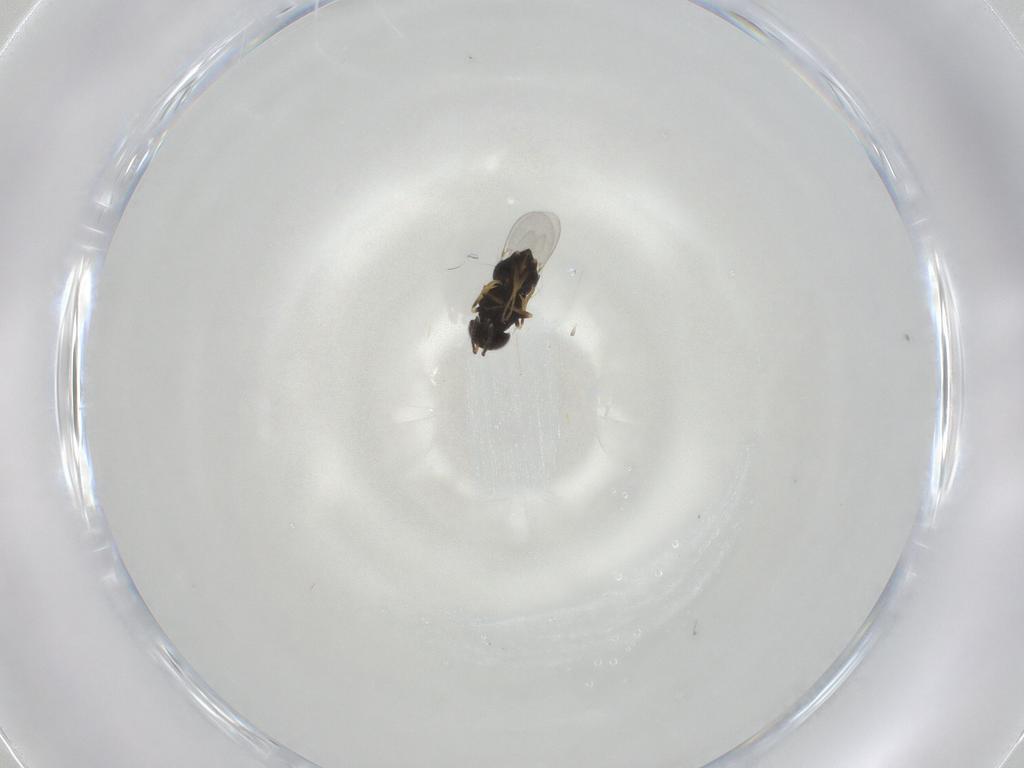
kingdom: Animalia
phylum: Arthropoda
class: Insecta
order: Hymenoptera
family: Encyrtidae
